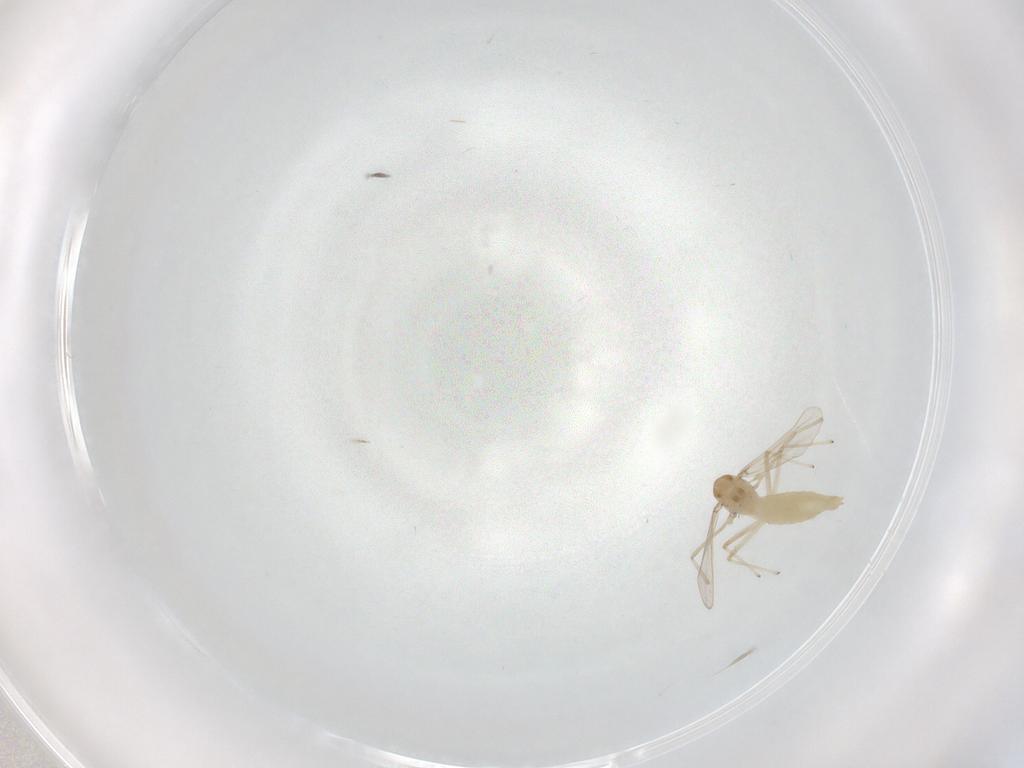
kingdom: Animalia
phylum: Arthropoda
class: Insecta
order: Diptera
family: Chironomidae
